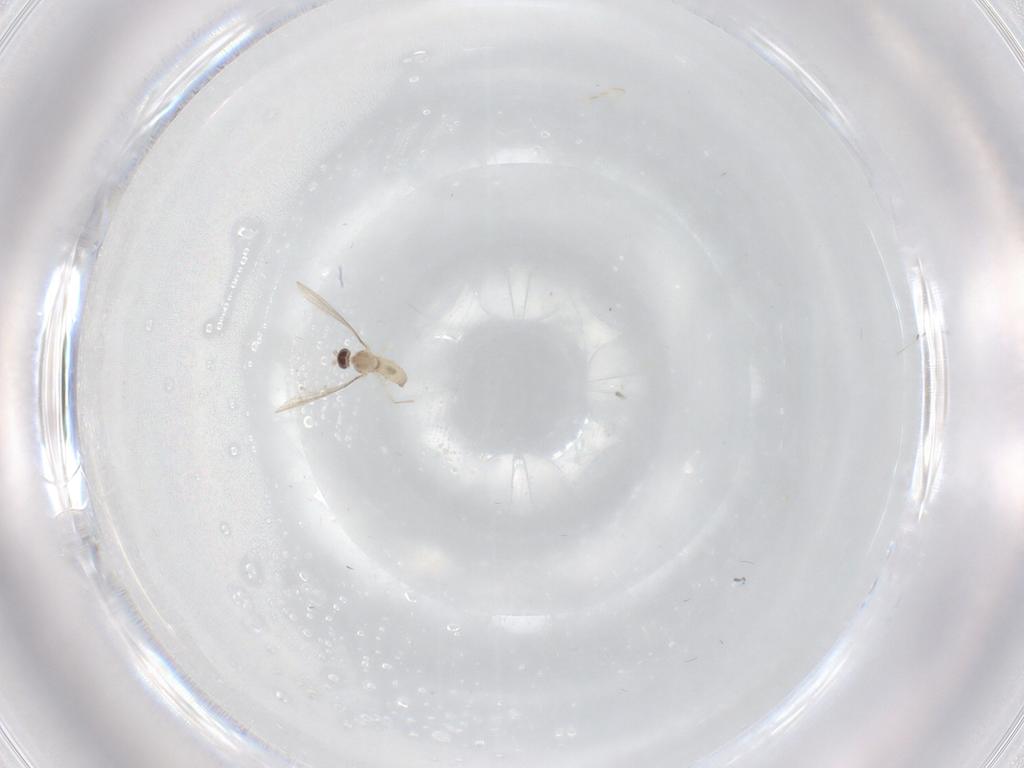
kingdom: Animalia
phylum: Arthropoda
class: Insecta
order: Diptera
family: Cecidomyiidae
